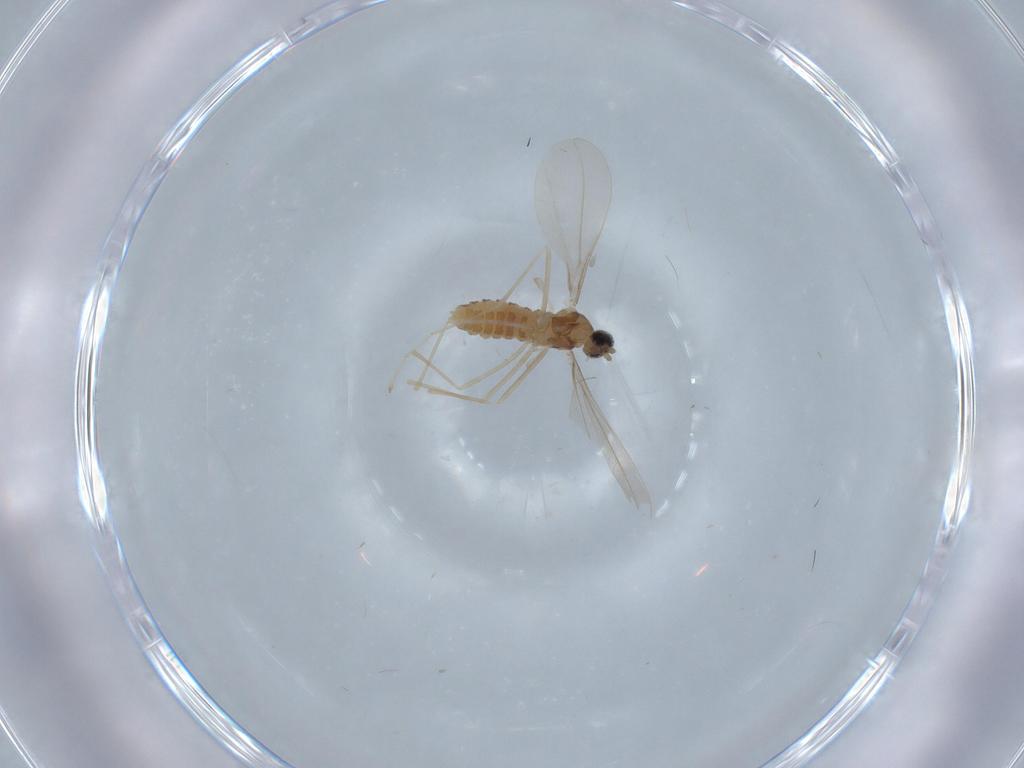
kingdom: Animalia
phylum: Arthropoda
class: Insecta
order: Diptera
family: Cecidomyiidae
